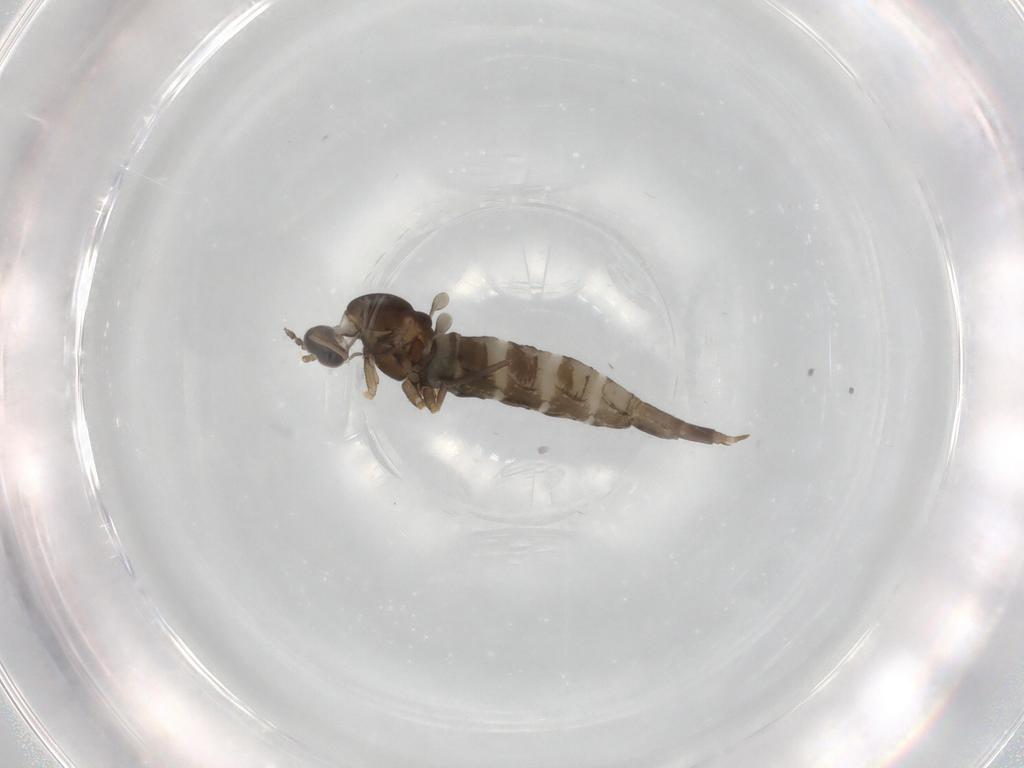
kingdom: Animalia
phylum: Arthropoda
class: Insecta
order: Diptera
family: Cecidomyiidae
